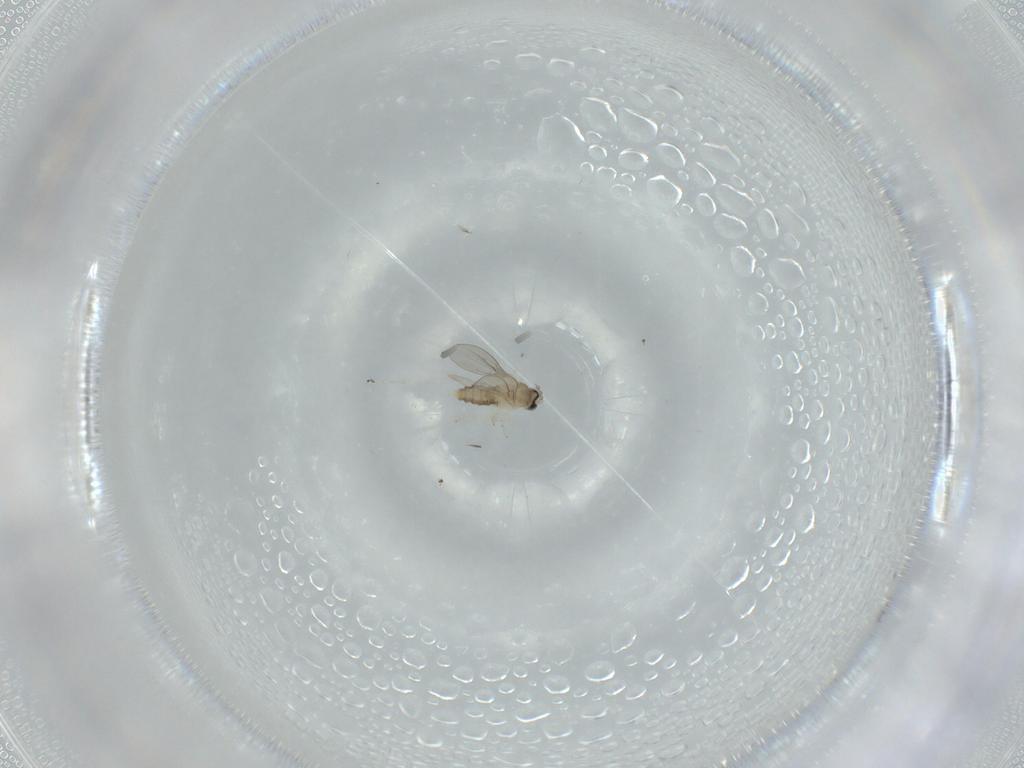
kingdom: Animalia
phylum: Arthropoda
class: Insecta
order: Diptera
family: Cecidomyiidae
